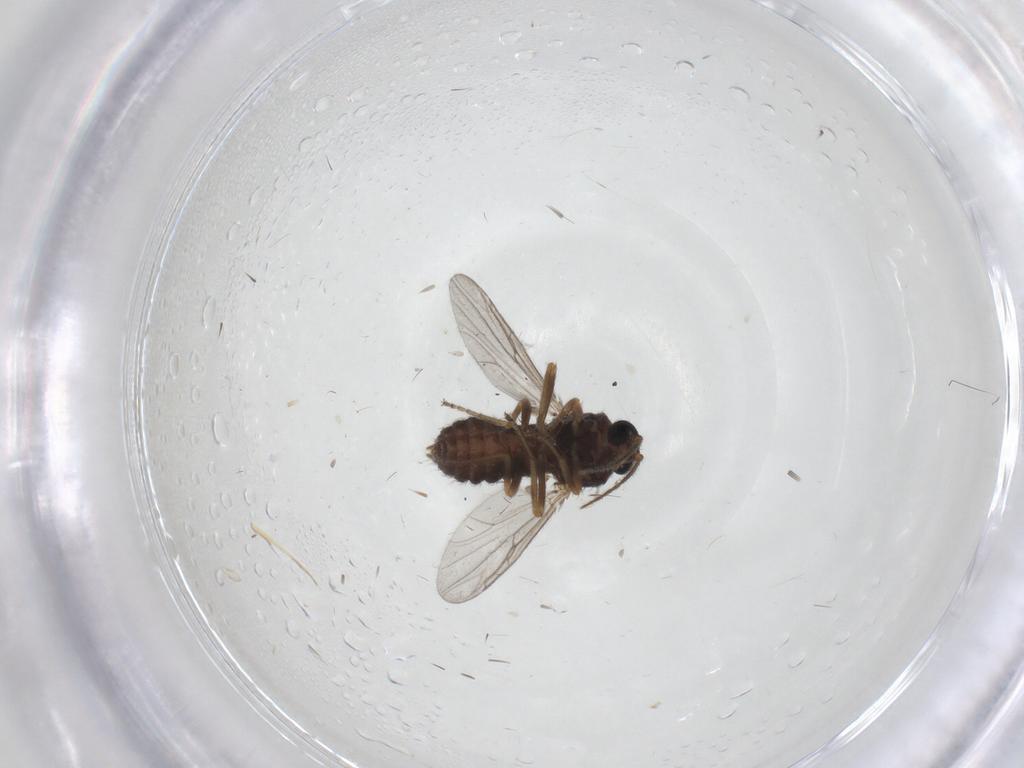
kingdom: Animalia
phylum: Arthropoda
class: Insecta
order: Diptera
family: Ceratopogonidae
